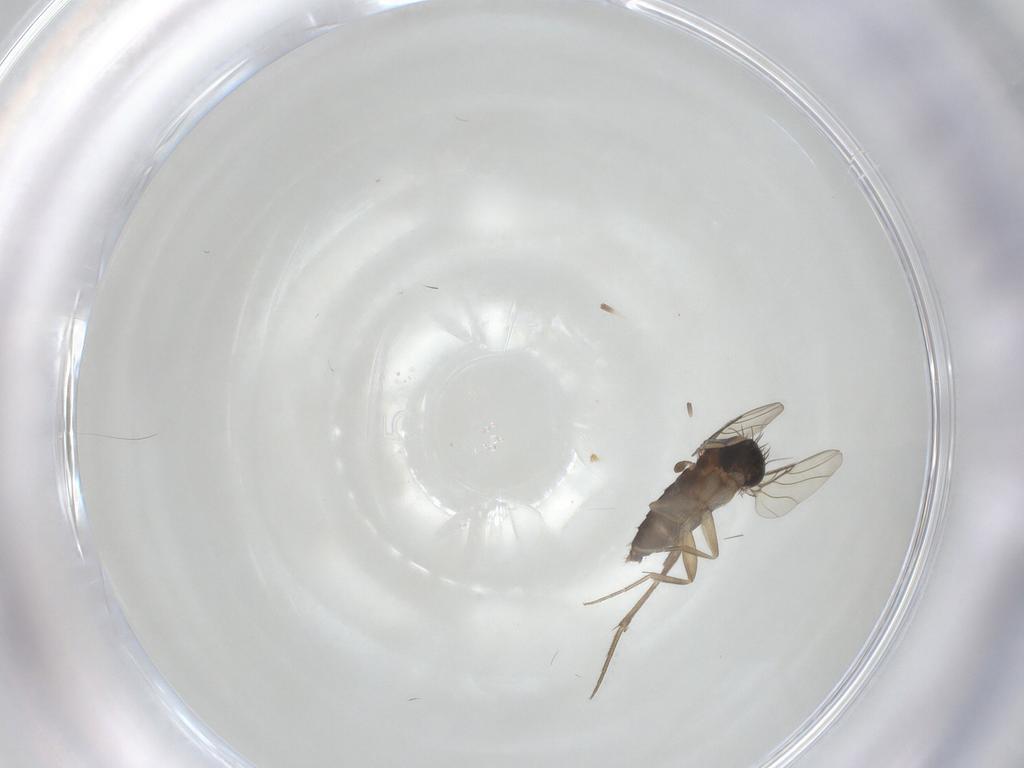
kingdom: Animalia
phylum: Arthropoda
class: Insecta
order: Diptera
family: Phoridae
